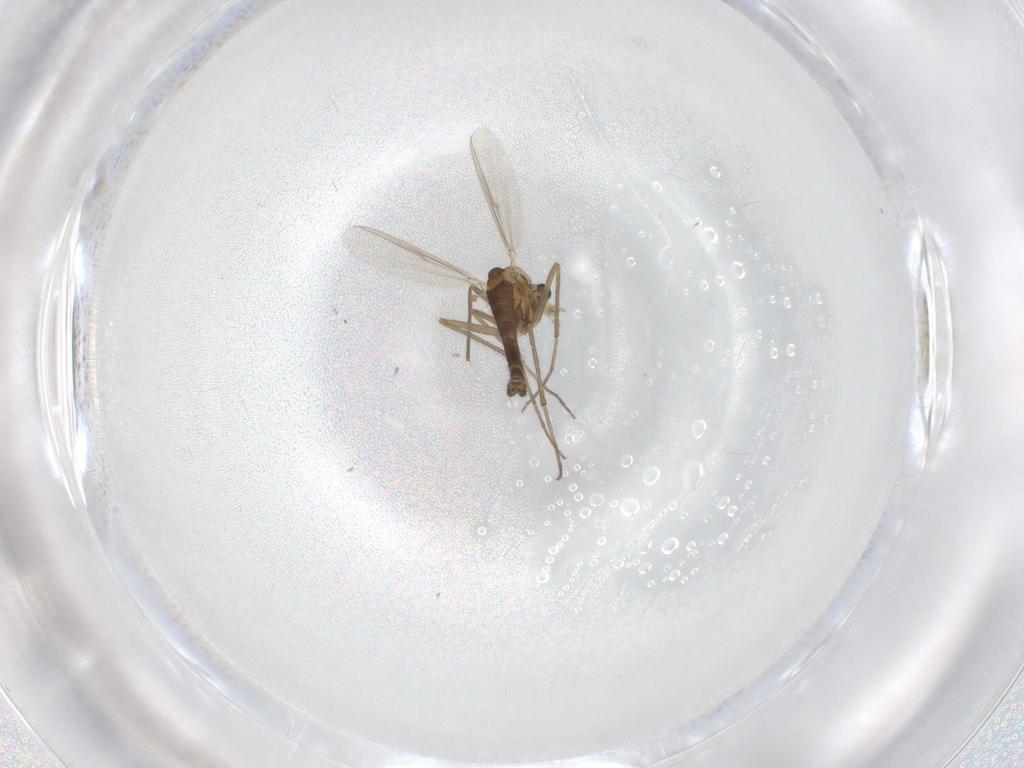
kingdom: Animalia
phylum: Arthropoda
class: Insecta
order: Diptera
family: Chironomidae
